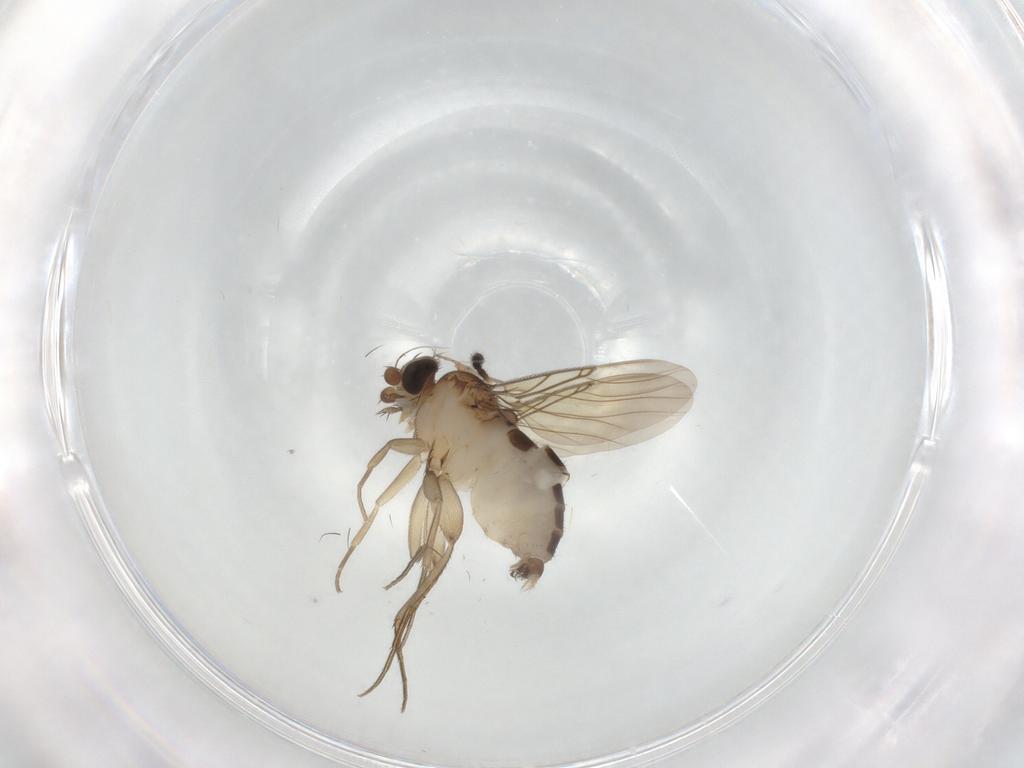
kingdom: Animalia
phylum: Arthropoda
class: Insecta
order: Diptera
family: Phoridae
